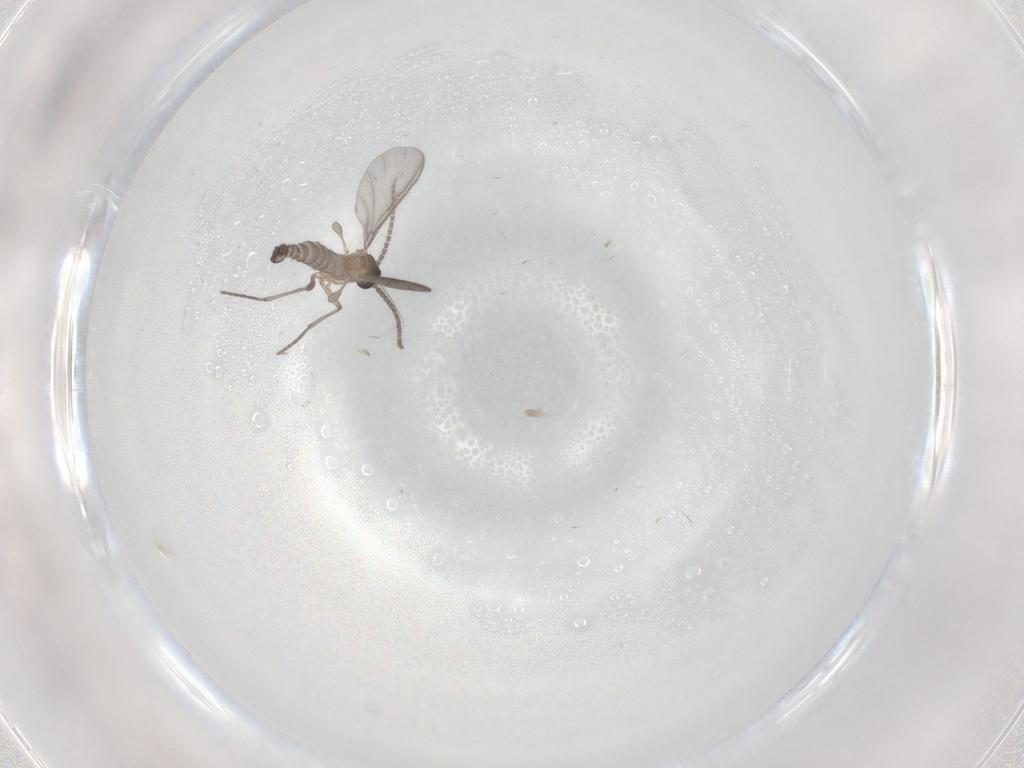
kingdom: Animalia
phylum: Arthropoda
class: Insecta
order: Diptera
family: Sciaridae
